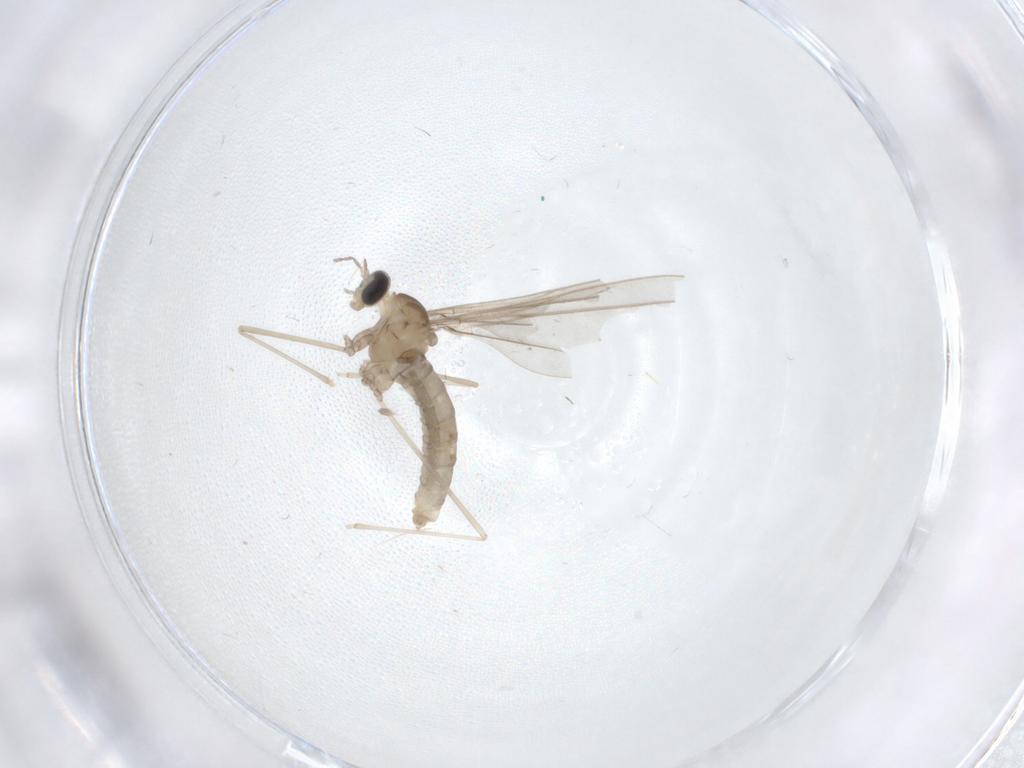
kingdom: Animalia
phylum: Arthropoda
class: Insecta
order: Diptera
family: Cecidomyiidae
